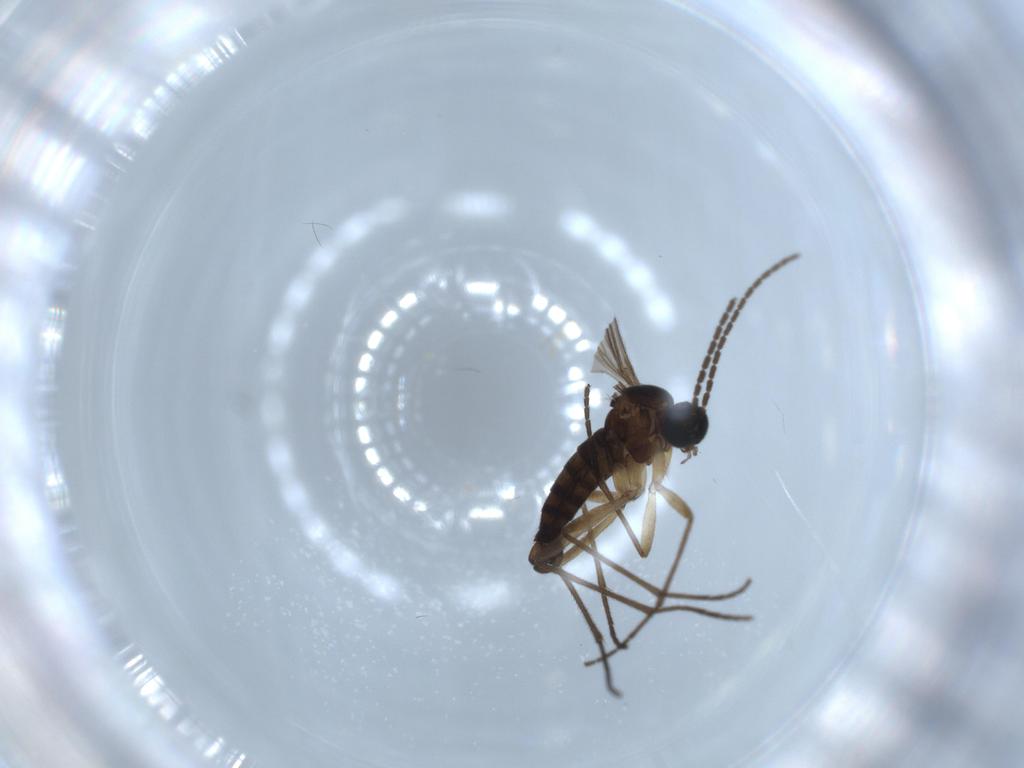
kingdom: Animalia
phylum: Arthropoda
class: Insecta
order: Diptera
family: Sciaridae
